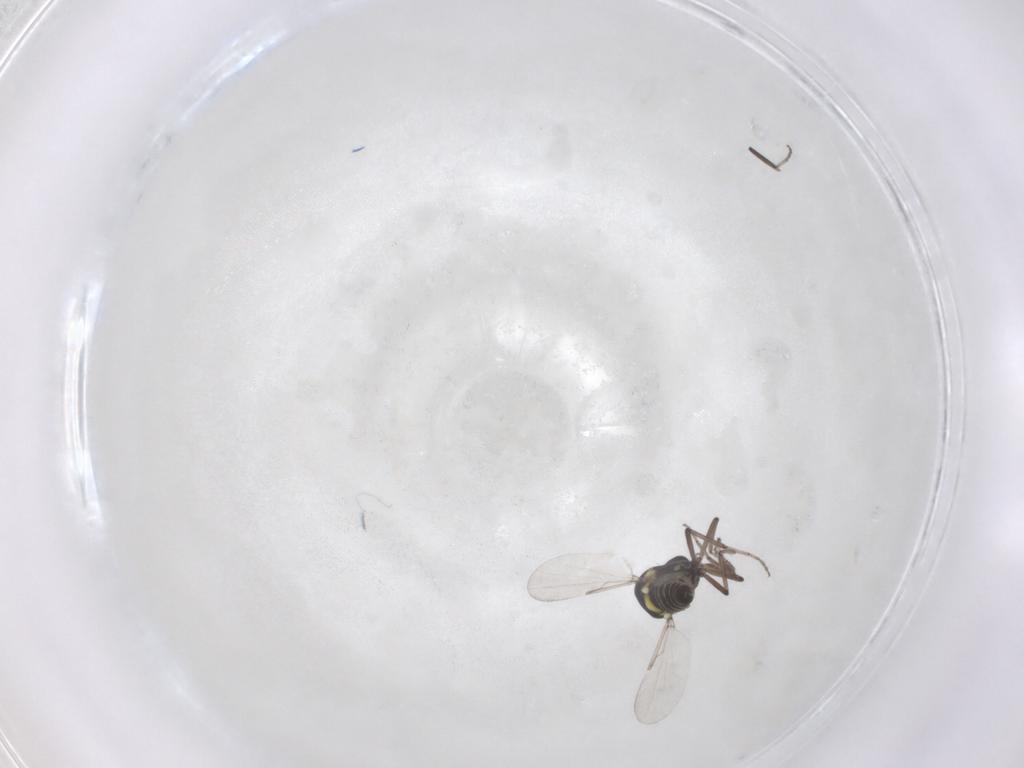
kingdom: Animalia
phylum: Arthropoda
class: Insecta
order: Diptera
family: Ceratopogonidae
